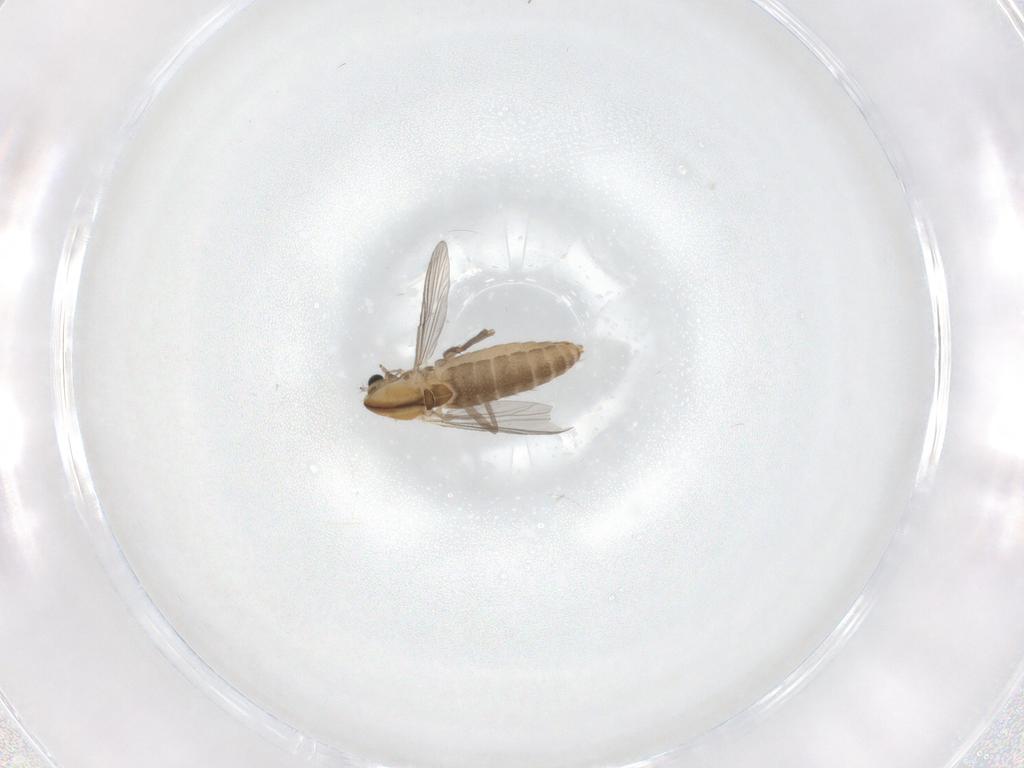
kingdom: Animalia
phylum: Arthropoda
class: Insecta
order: Diptera
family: Chironomidae
